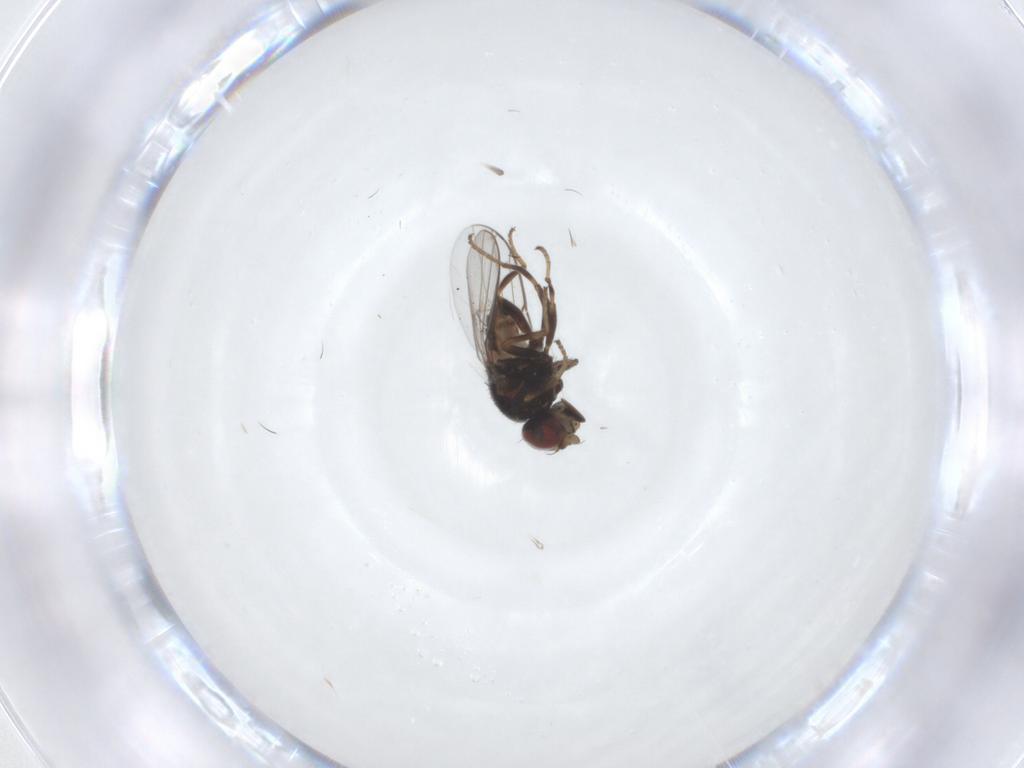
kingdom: Animalia
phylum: Arthropoda
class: Insecta
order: Diptera
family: Chloropidae
